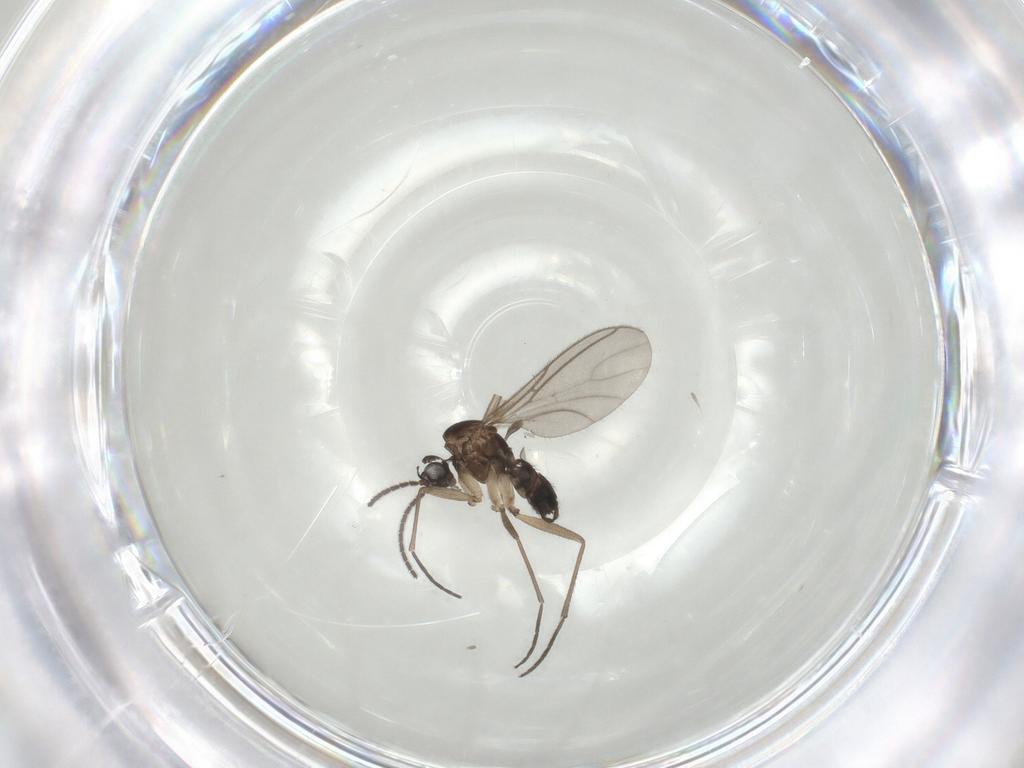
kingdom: Animalia
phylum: Arthropoda
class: Insecta
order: Diptera
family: Sciaridae
